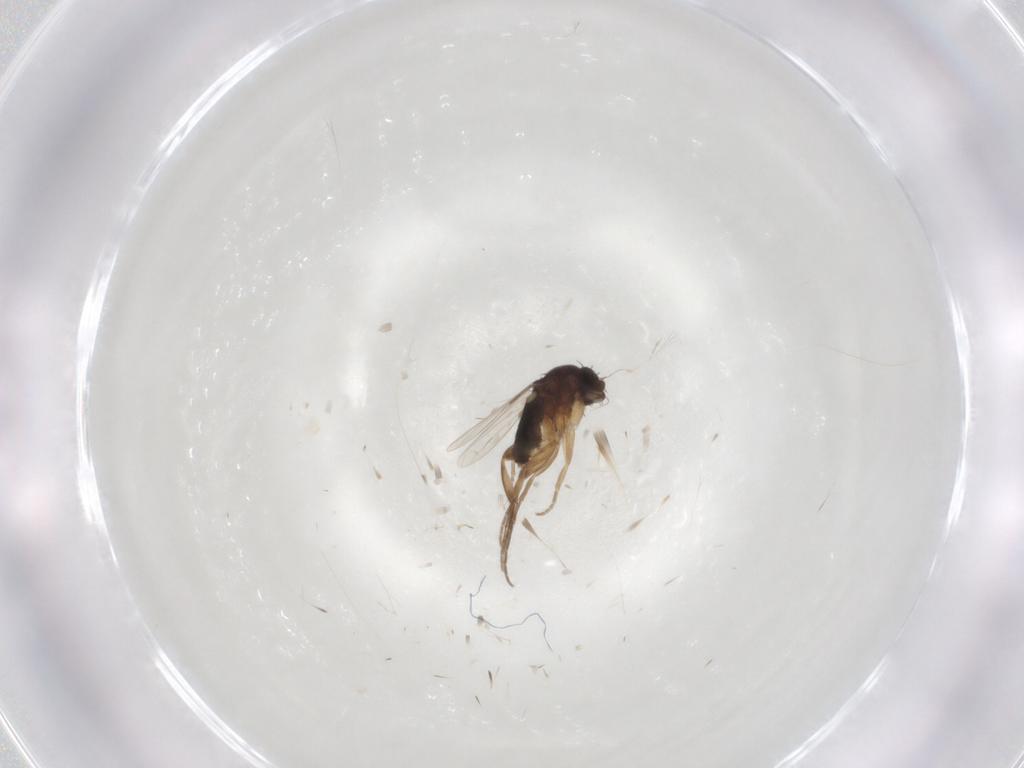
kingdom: Animalia
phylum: Arthropoda
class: Insecta
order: Diptera
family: Phoridae
